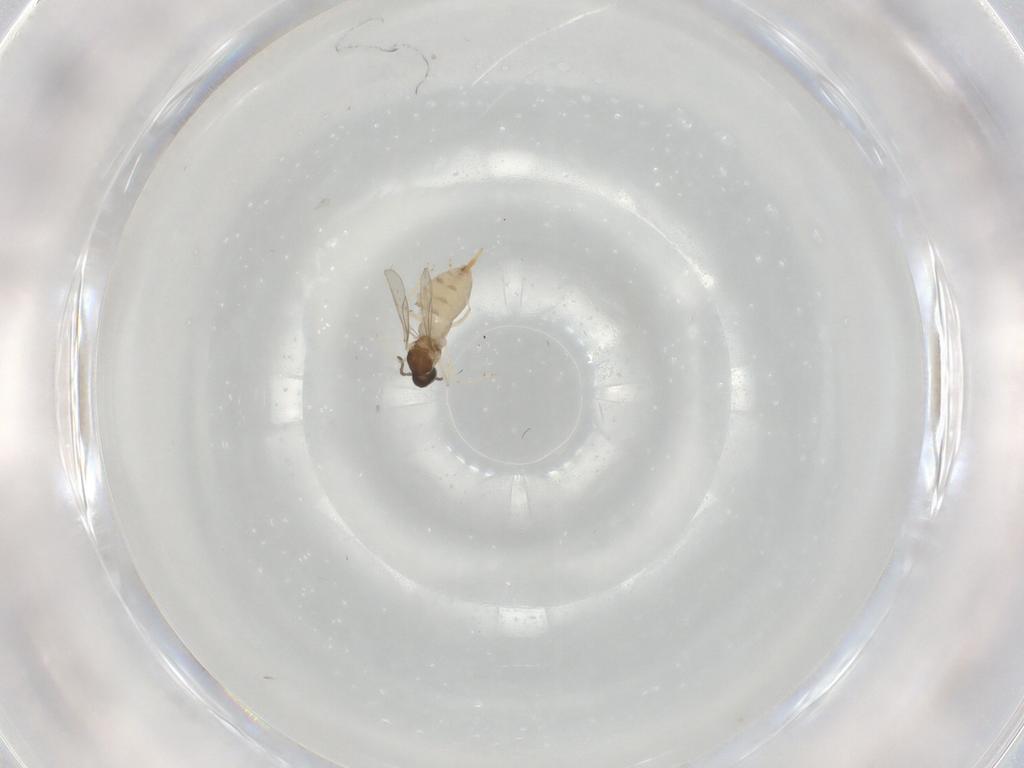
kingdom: Animalia
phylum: Arthropoda
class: Insecta
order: Diptera
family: Cecidomyiidae
